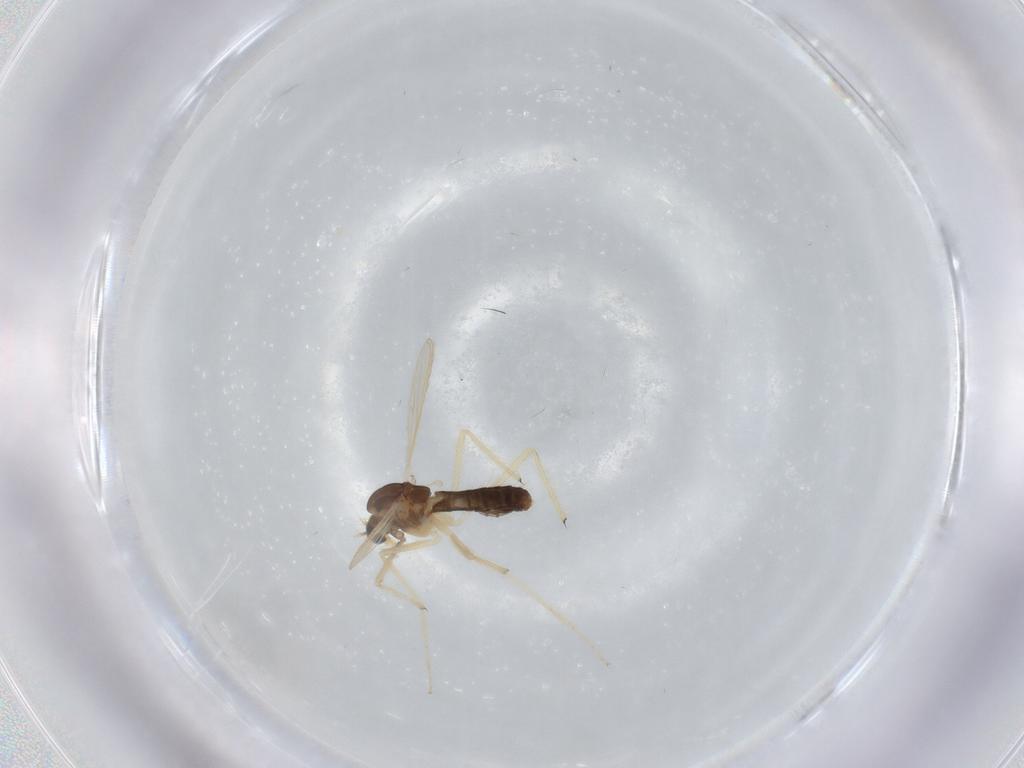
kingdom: Animalia
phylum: Arthropoda
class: Insecta
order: Diptera
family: Chironomidae
